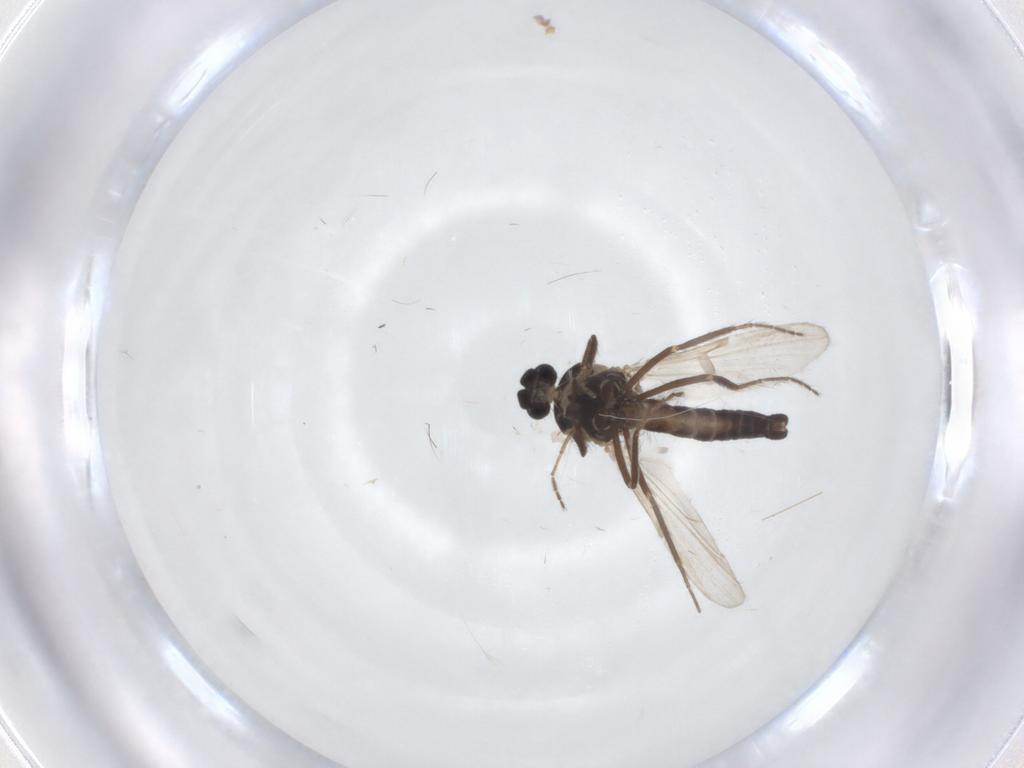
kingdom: Animalia
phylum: Arthropoda
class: Insecta
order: Diptera
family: Ceratopogonidae
